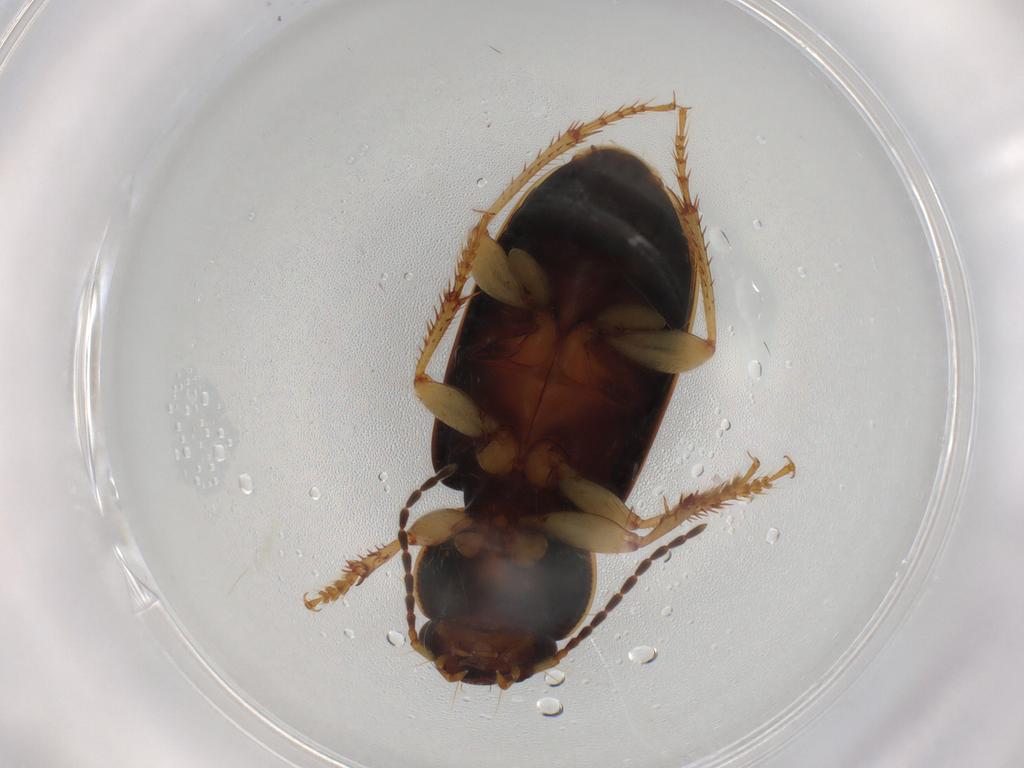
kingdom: Animalia
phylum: Arthropoda
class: Insecta
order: Coleoptera
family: Carabidae
